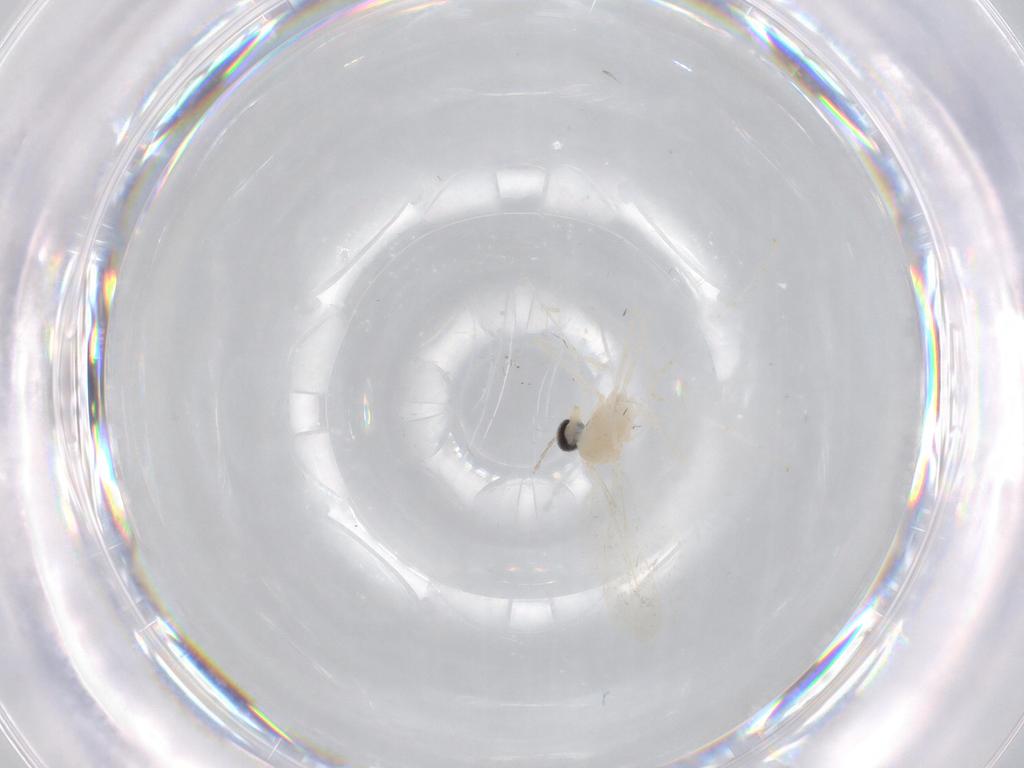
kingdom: Animalia
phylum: Arthropoda
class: Insecta
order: Diptera
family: Cecidomyiidae
